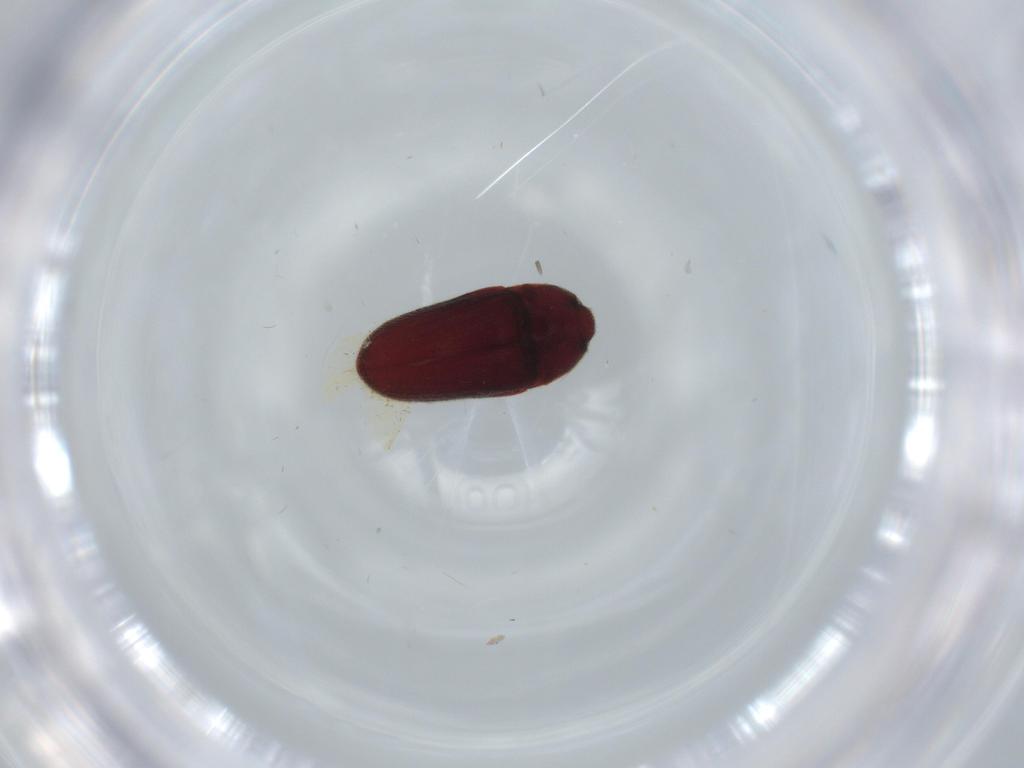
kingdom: Animalia
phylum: Arthropoda
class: Insecta
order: Coleoptera
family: Throscidae
